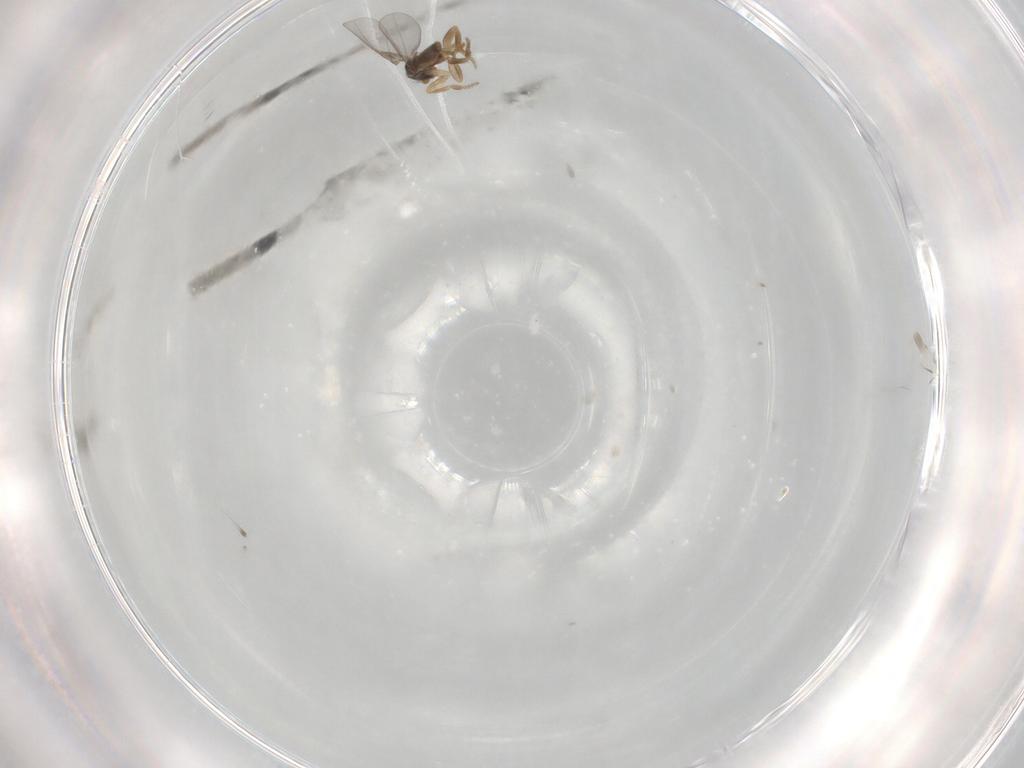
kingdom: Animalia
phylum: Arthropoda
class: Insecta
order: Diptera
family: Phoridae
